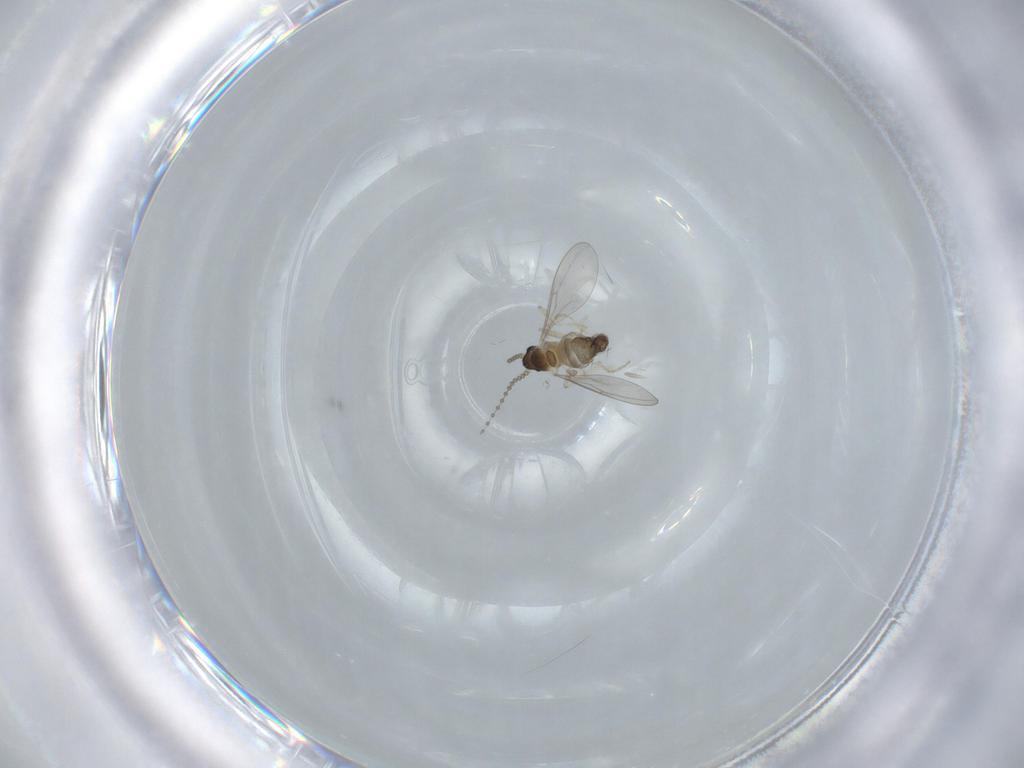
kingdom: Animalia
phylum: Arthropoda
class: Insecta
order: Diptera
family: Cecidomyiidae
